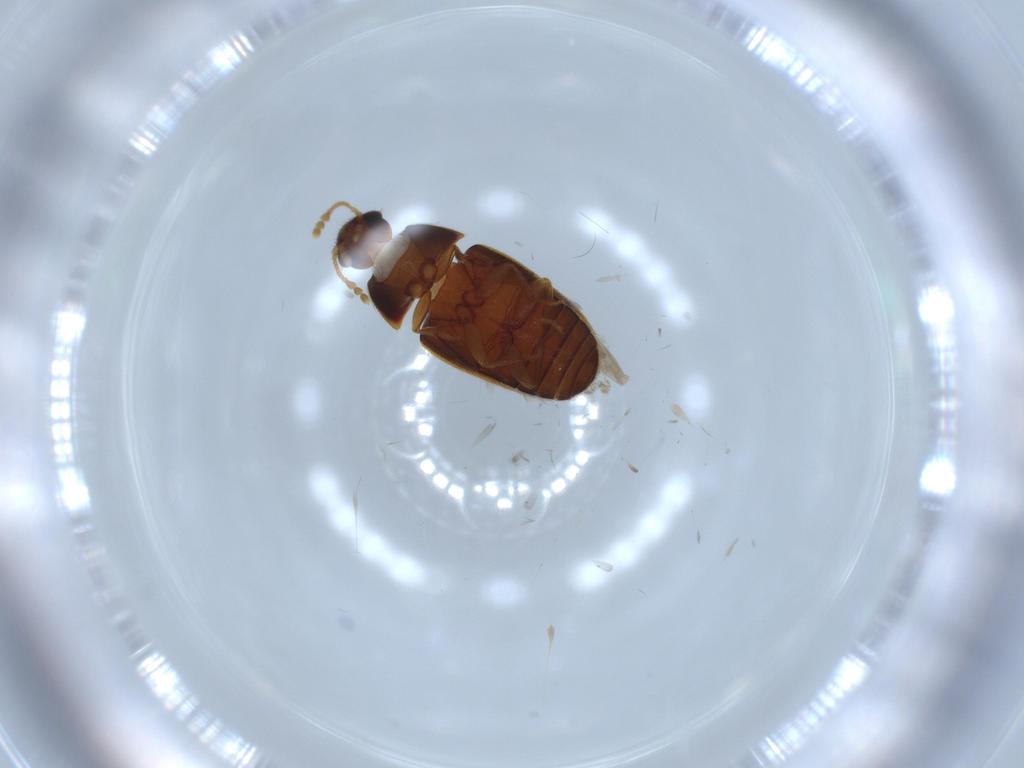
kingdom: Animalia
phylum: Arthropoda
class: Insecta
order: Coleoptera
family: Mycetophagidae
